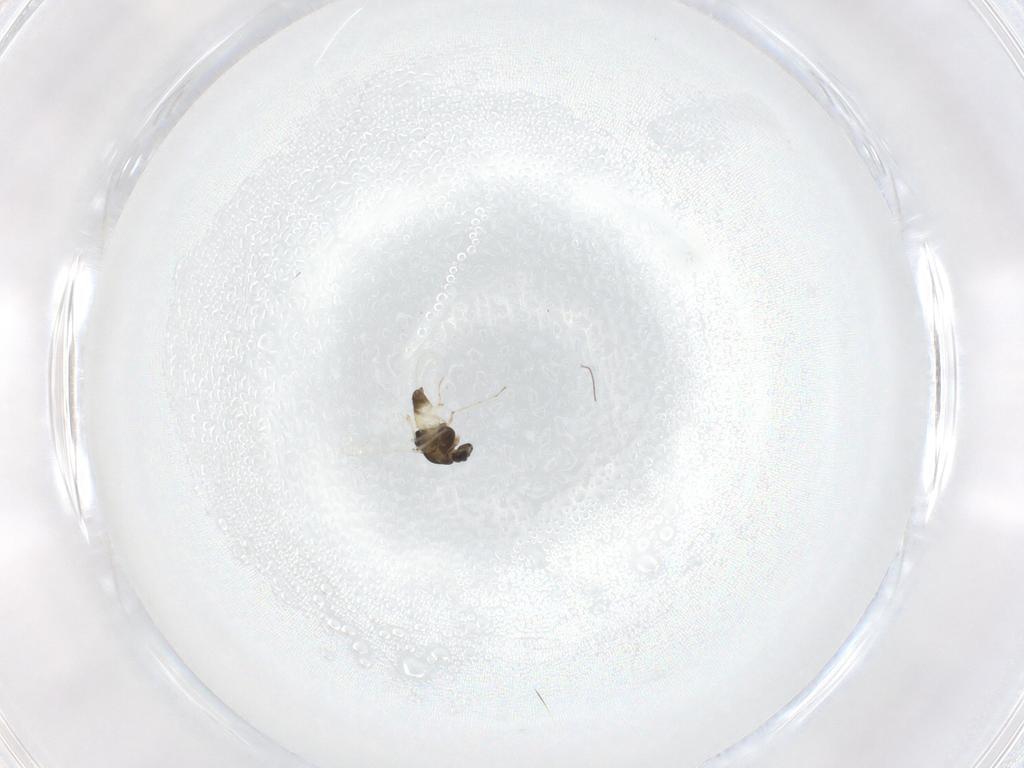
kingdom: Animalia
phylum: Arthropoda
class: Insecta
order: Diptera
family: Chironomidae
